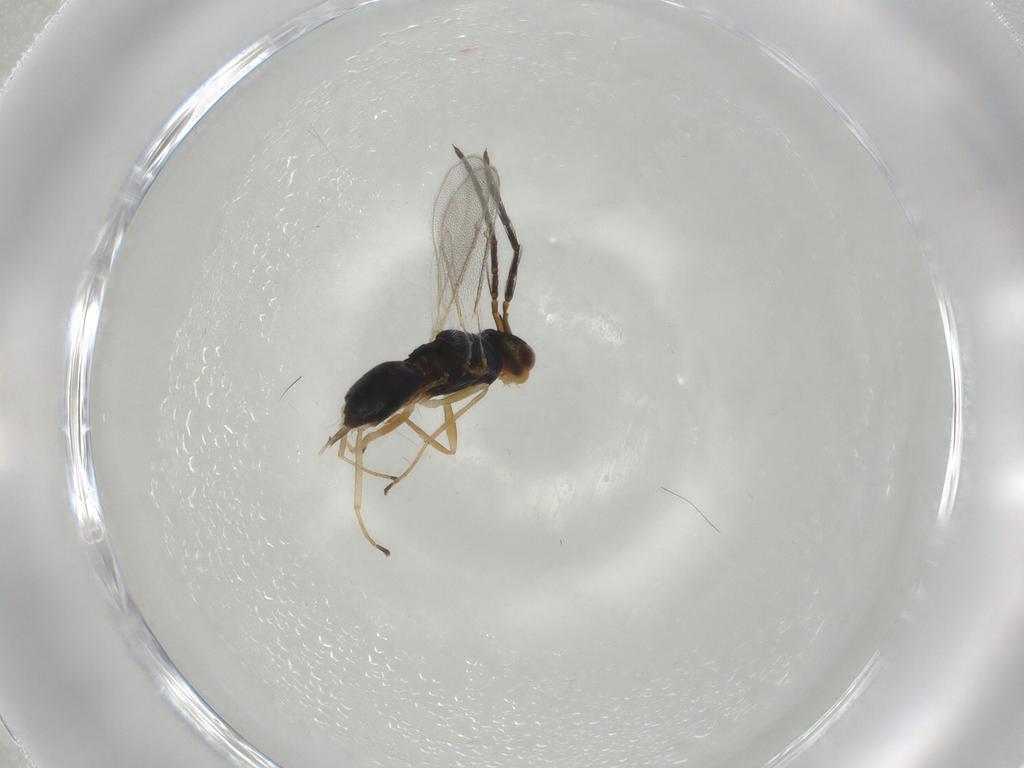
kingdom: Animalia
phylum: Arthropoda
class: Insecta
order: Hymenoptera
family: Eulophidae
